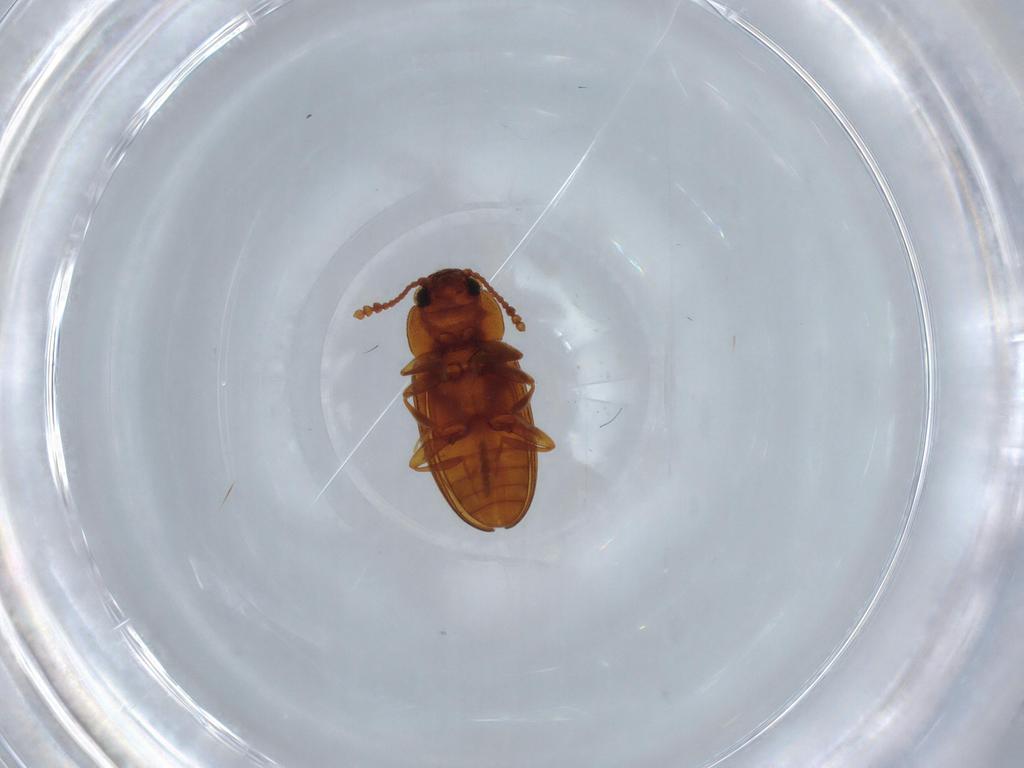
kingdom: Animalia
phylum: Arthropoda
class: Insecta
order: Coleoptera
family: Erotylidae
